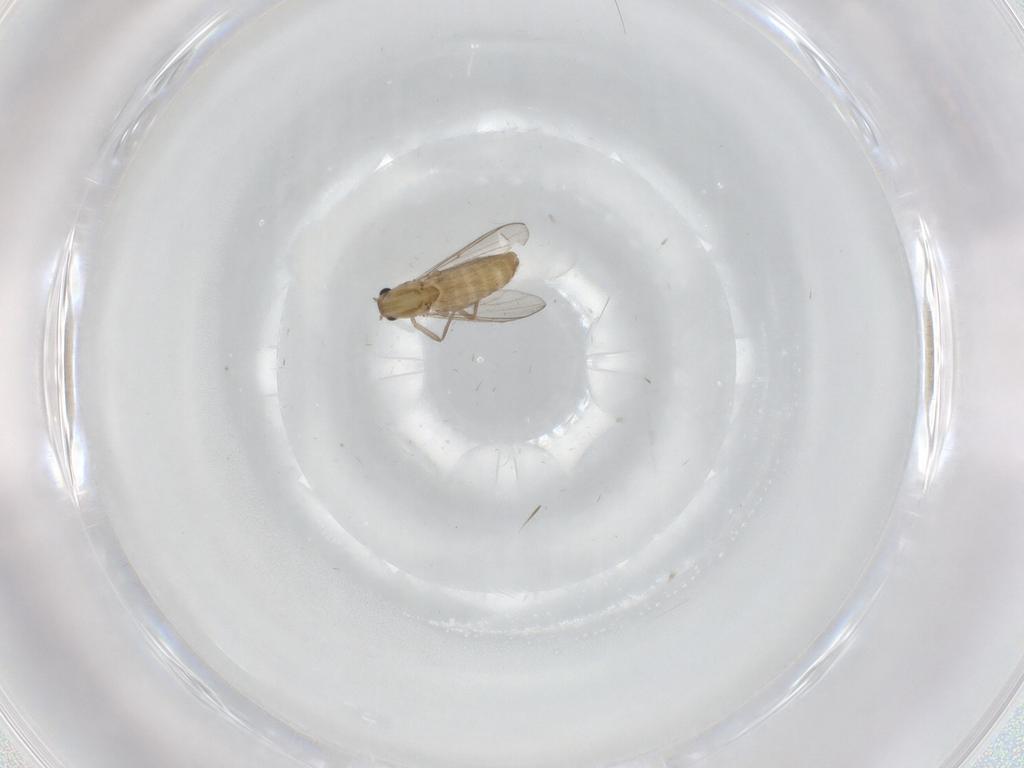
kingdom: Animalia
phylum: Arthropoda
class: Insecta
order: Diptera
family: Chironomidae
